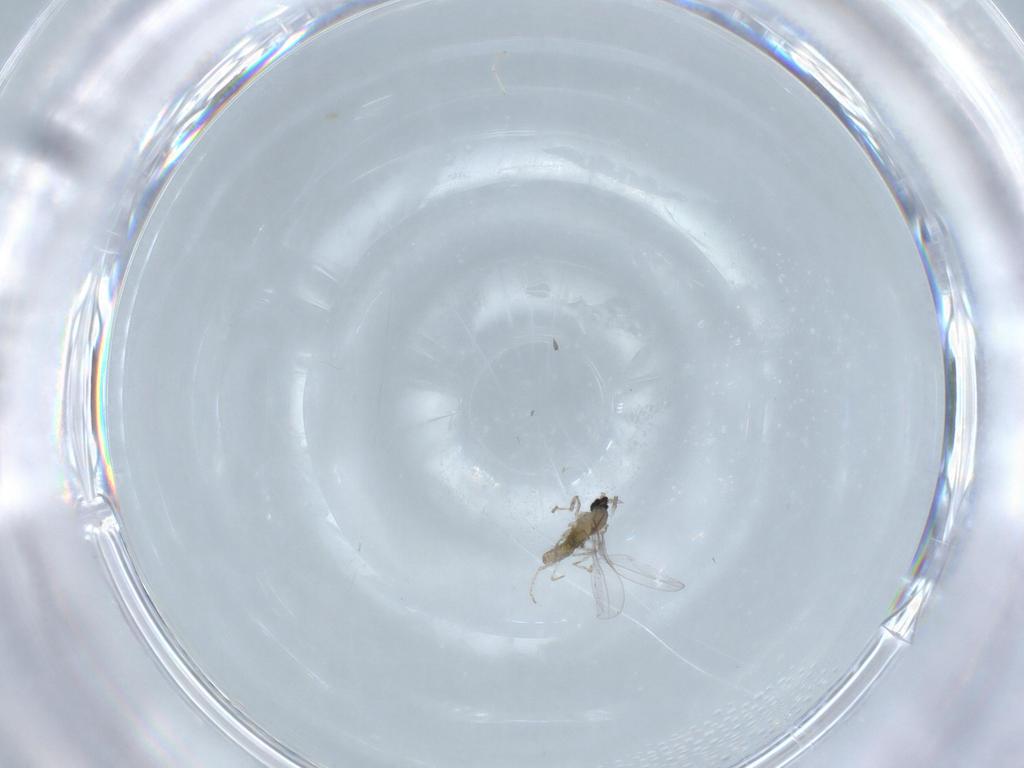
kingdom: Animalia
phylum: Arthropoda
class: Insecta
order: Diptera
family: Cecidomyiidae
